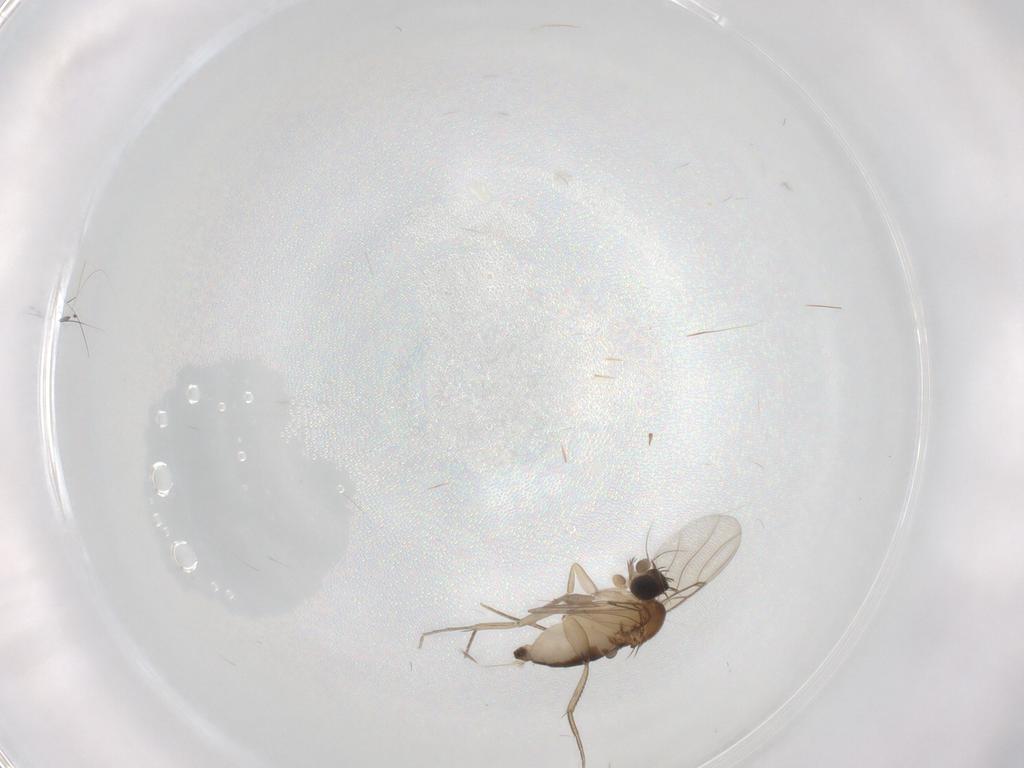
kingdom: Animalia
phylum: Arthropoda
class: Insecta
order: Diptera
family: Phoridae
